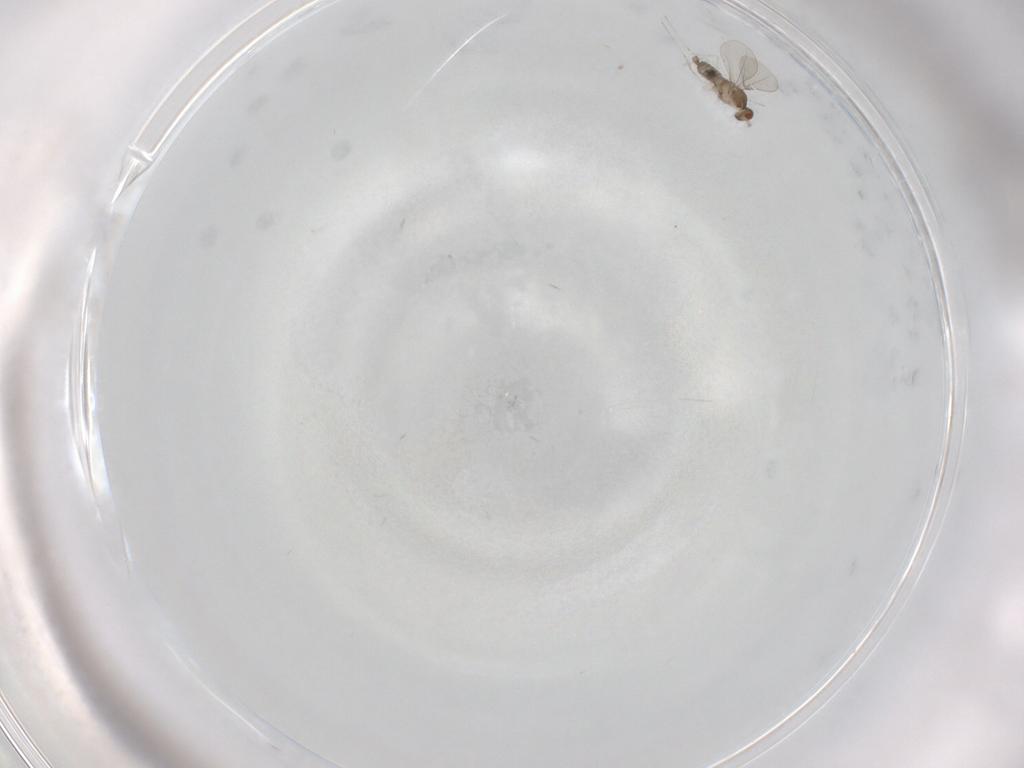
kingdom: Animalia
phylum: Arthropoda
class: Insecta
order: Diptera
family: Cecidomyiidae
